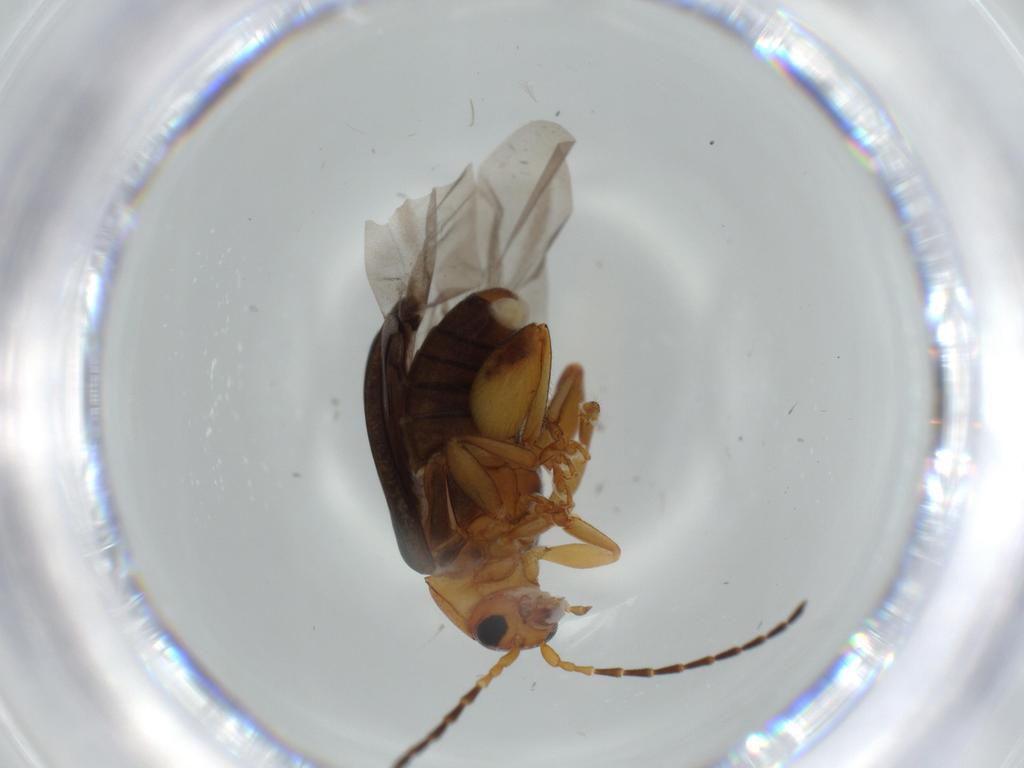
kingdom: Animalia
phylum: Arthropoda
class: Insecta
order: Coleoptera
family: Chrysomelidae
